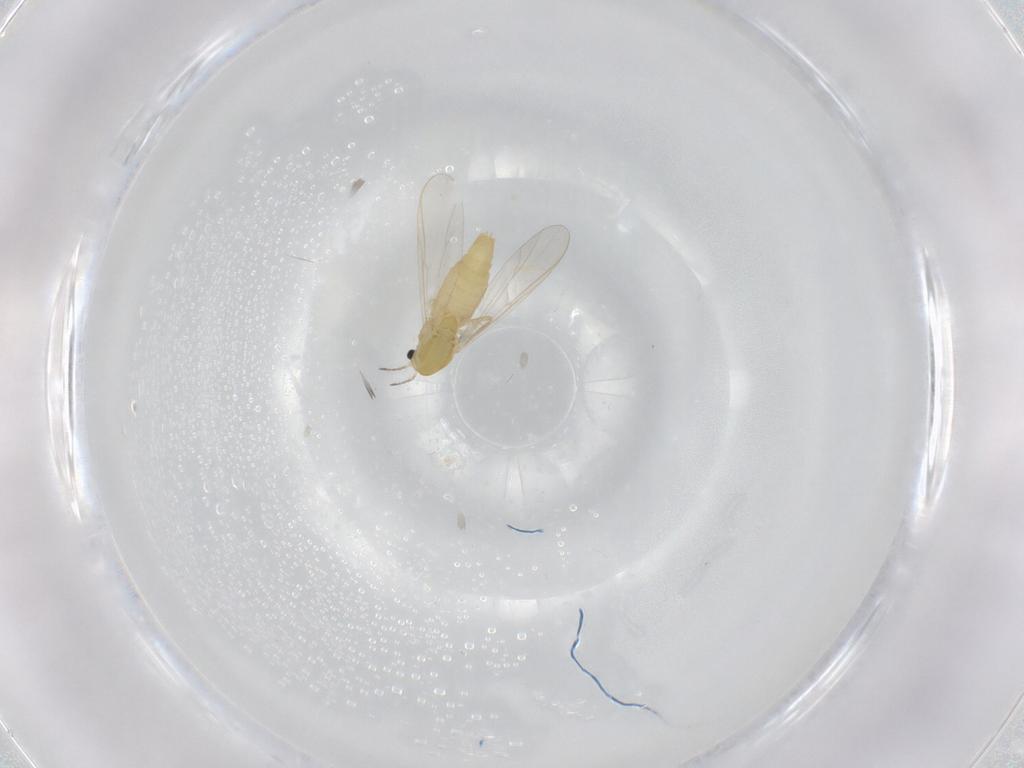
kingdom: Animalia
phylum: Arthropoda
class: Insecta
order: Diptera
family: Chironomidae
